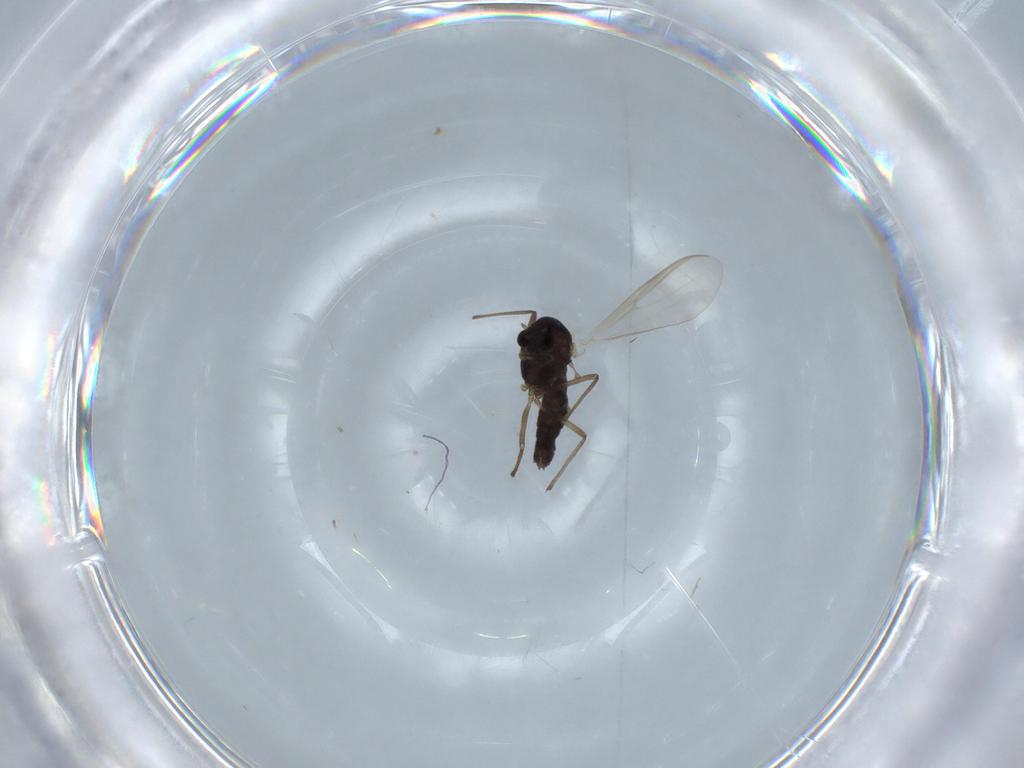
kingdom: Animalia
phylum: Arthropoda
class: Insecta
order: Diptera
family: Chironomidae
